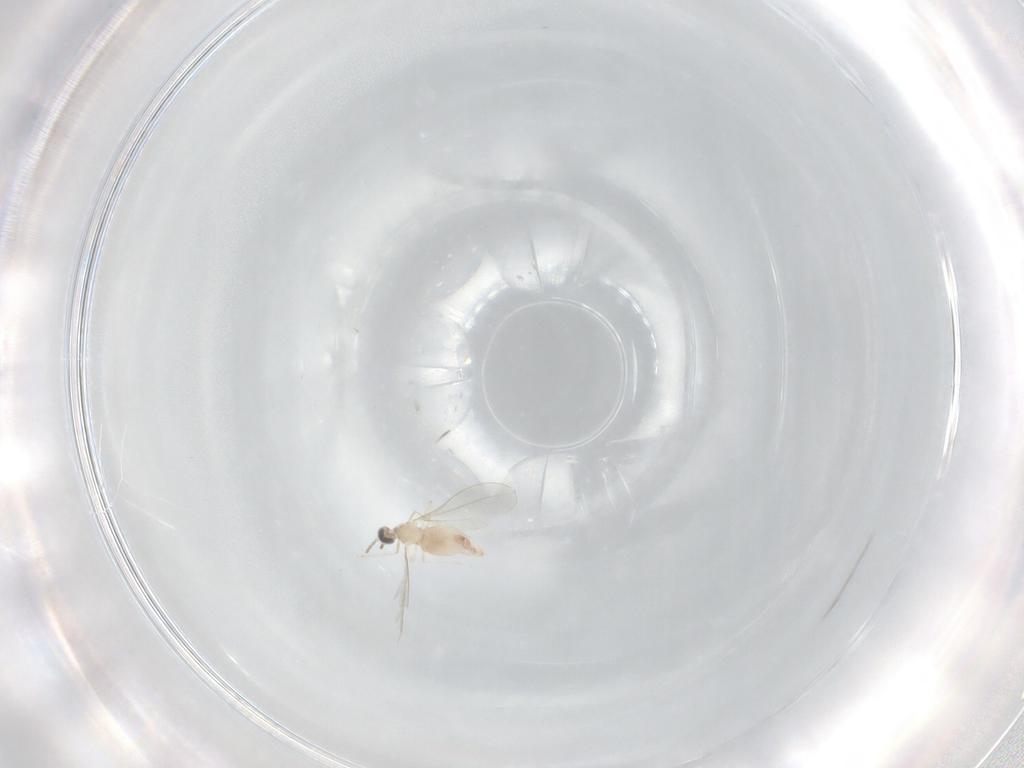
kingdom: Animalia
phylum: Arthropoda
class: Insecta
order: Diptera
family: Cecidomyiidae
